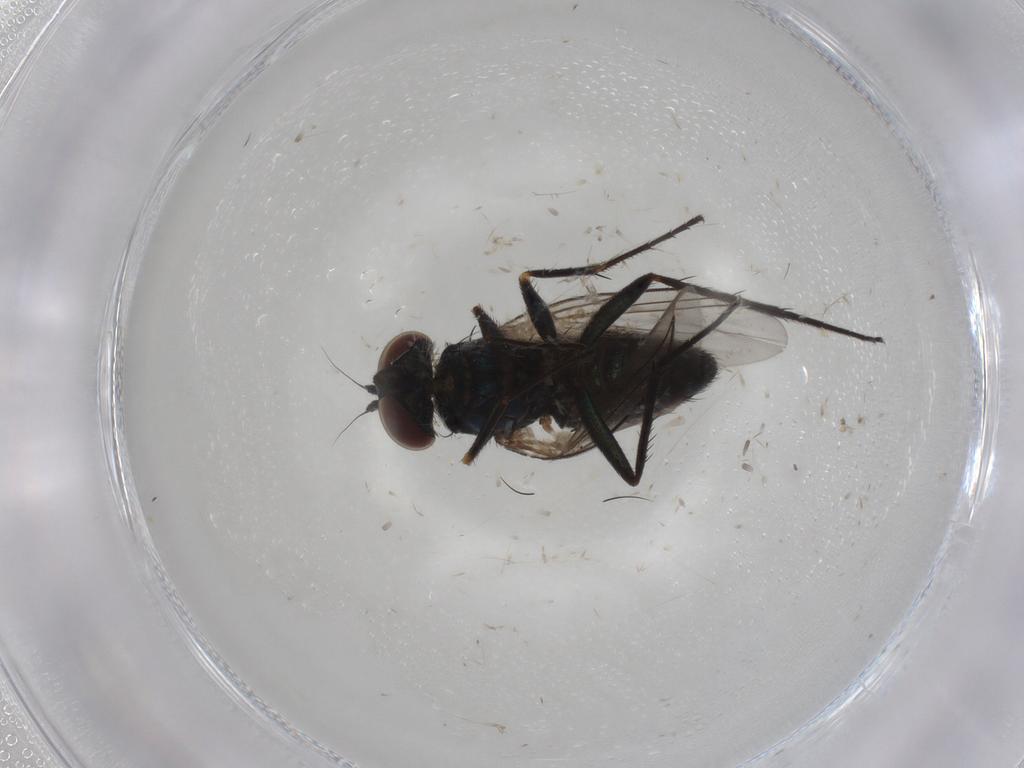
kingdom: Animalia
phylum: Arthropoda
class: Insecta
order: Diptera
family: Dolichopodidae
